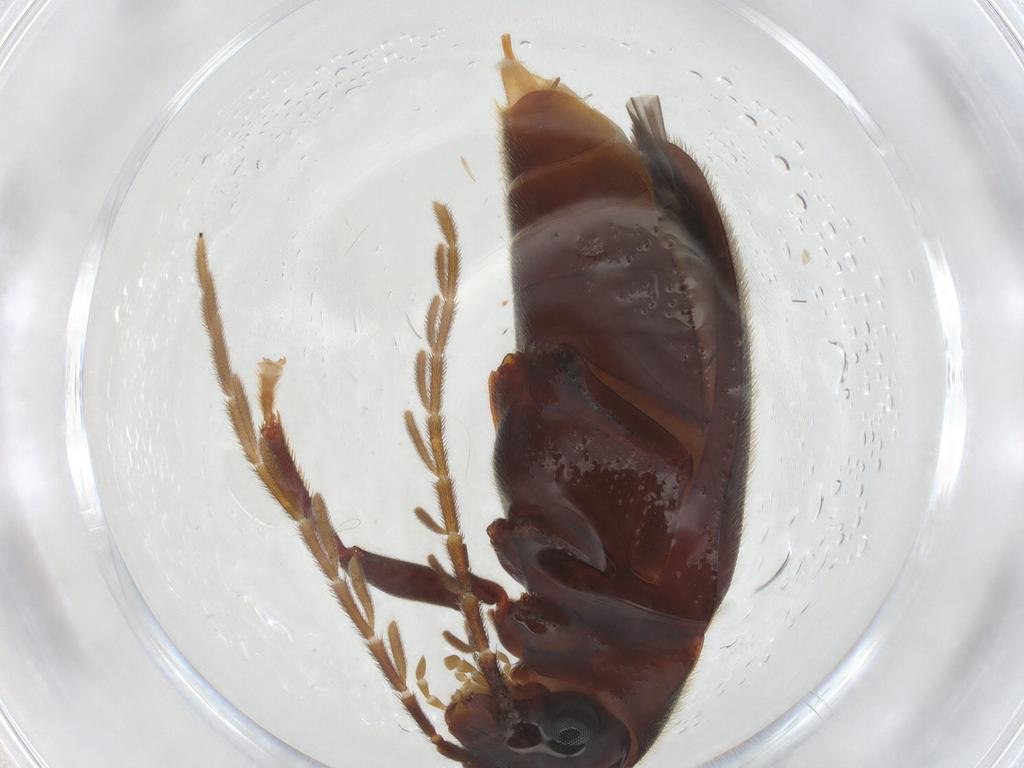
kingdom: Animalia
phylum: Arthropoda
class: Insecta
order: Coleoptera
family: Ptilodactylidae
